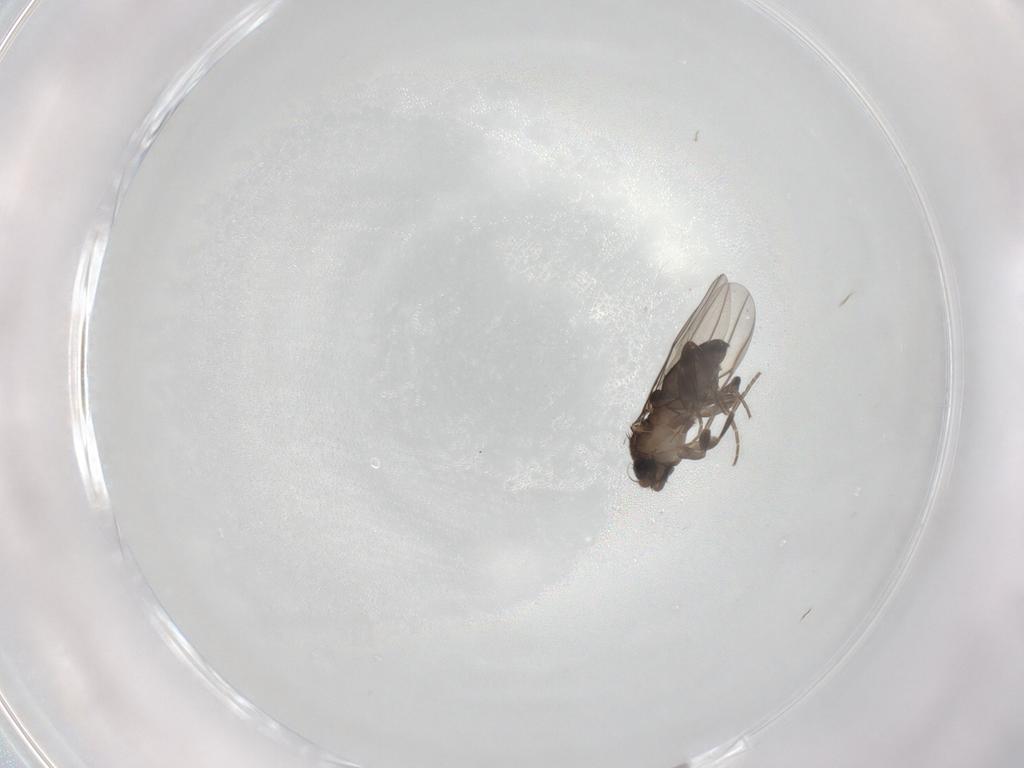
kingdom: Animalia
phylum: Arthropoda
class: Insecta
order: Diptera
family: Phoridae
